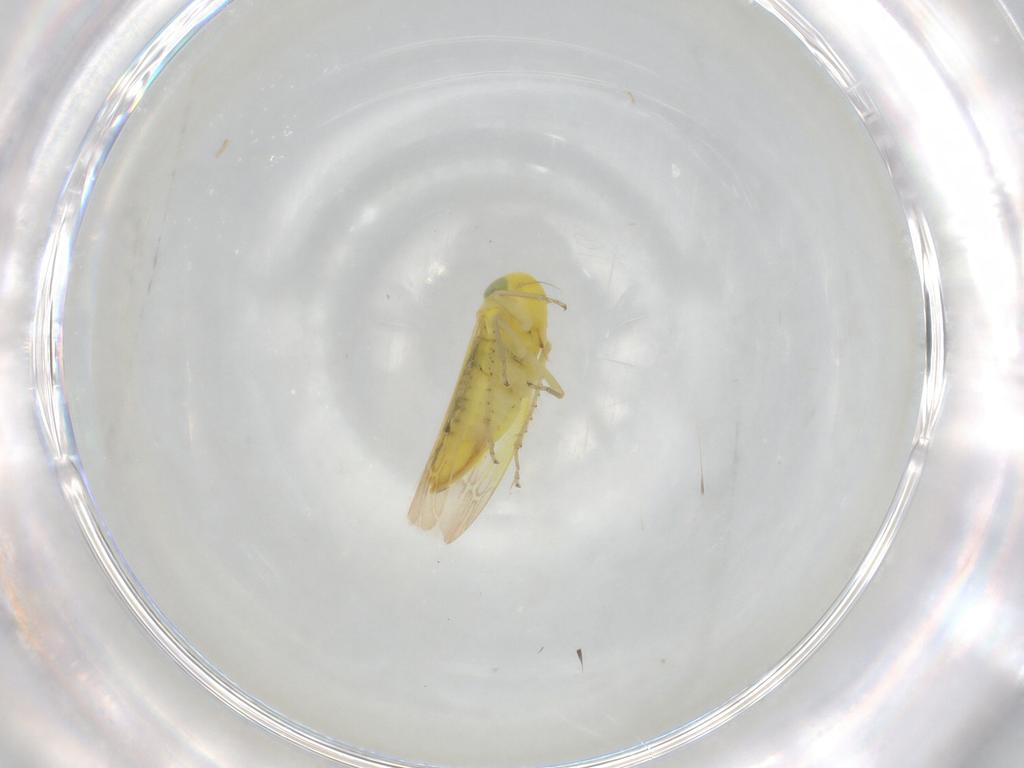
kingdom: Animalia
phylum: Arthropoda
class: Insecta
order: Hemiptera
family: Cicadellidae
